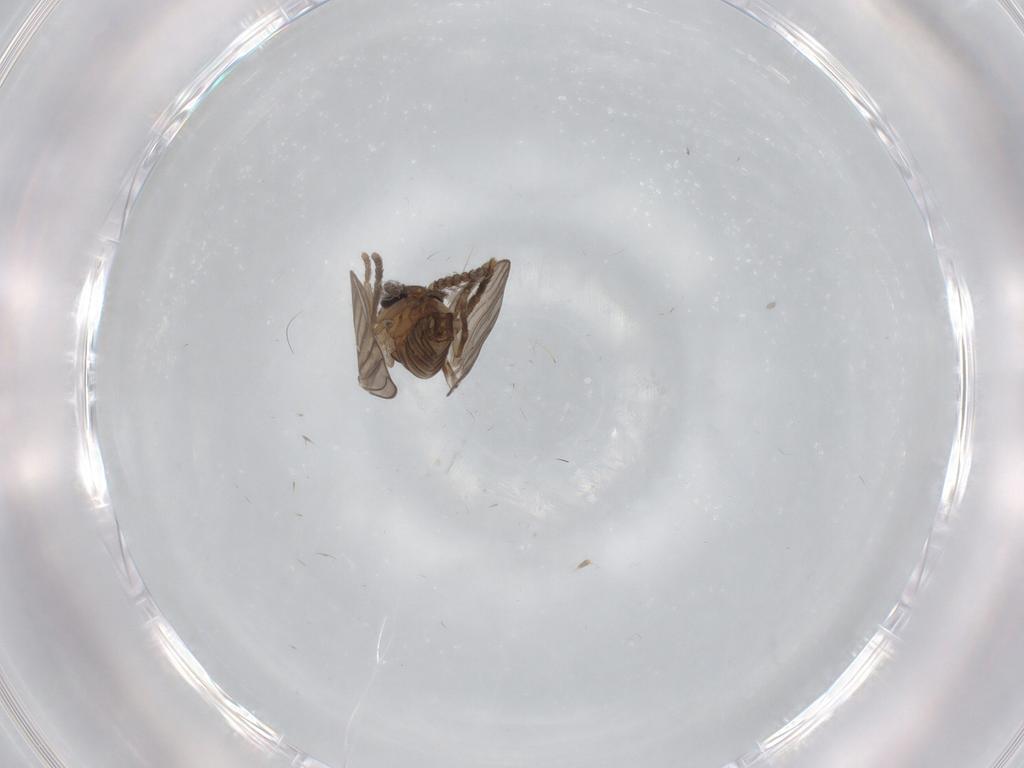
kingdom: Animalia
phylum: Arthropoda
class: Insecta
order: Diptera
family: Psychodidae
